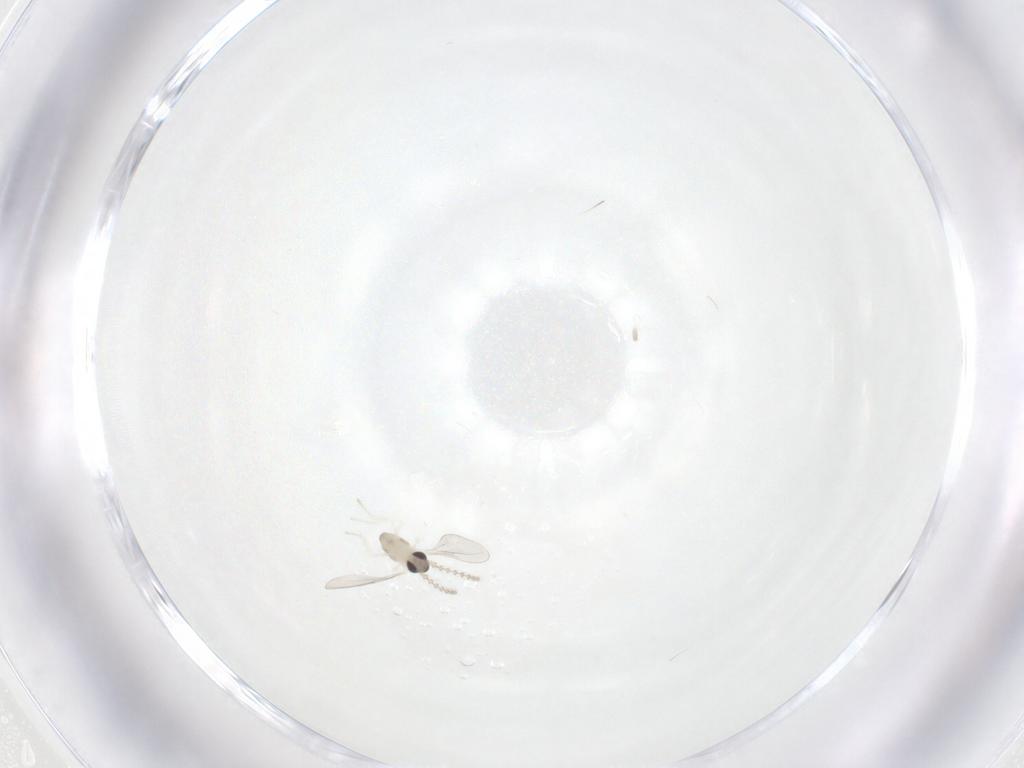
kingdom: Animalia
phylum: Arthropoda
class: Insecta
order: Diptera
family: Cecidomyiidae
